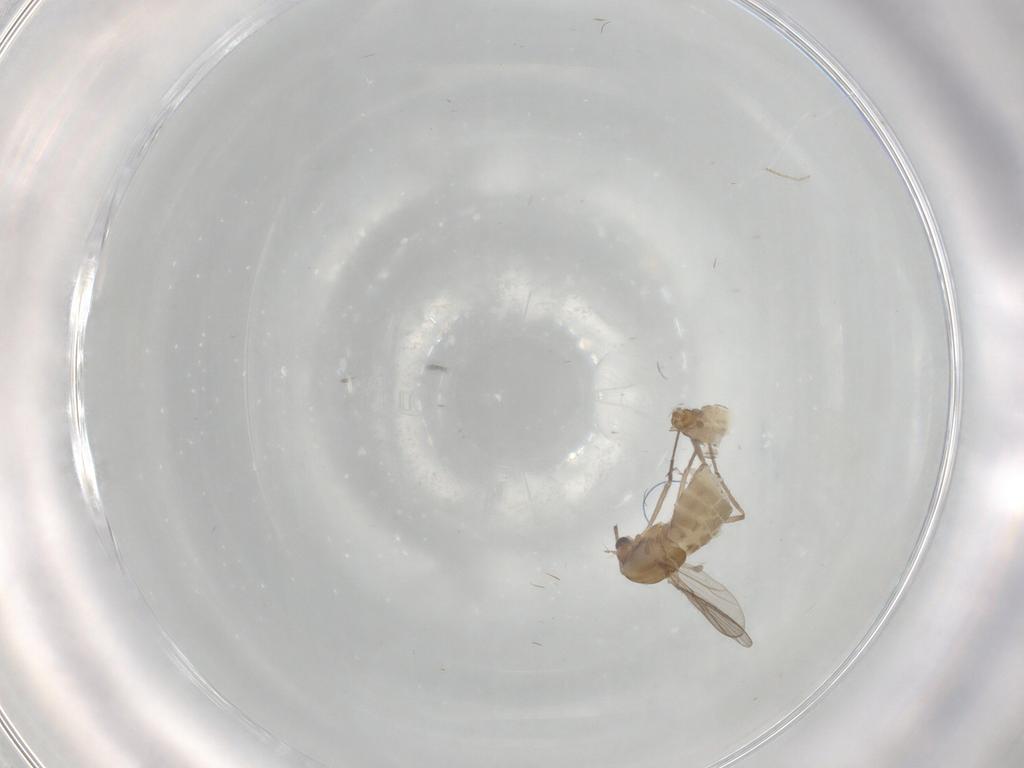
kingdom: Animalia
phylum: Arthropoda
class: Insecta
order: Diptera
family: Chironomidae
